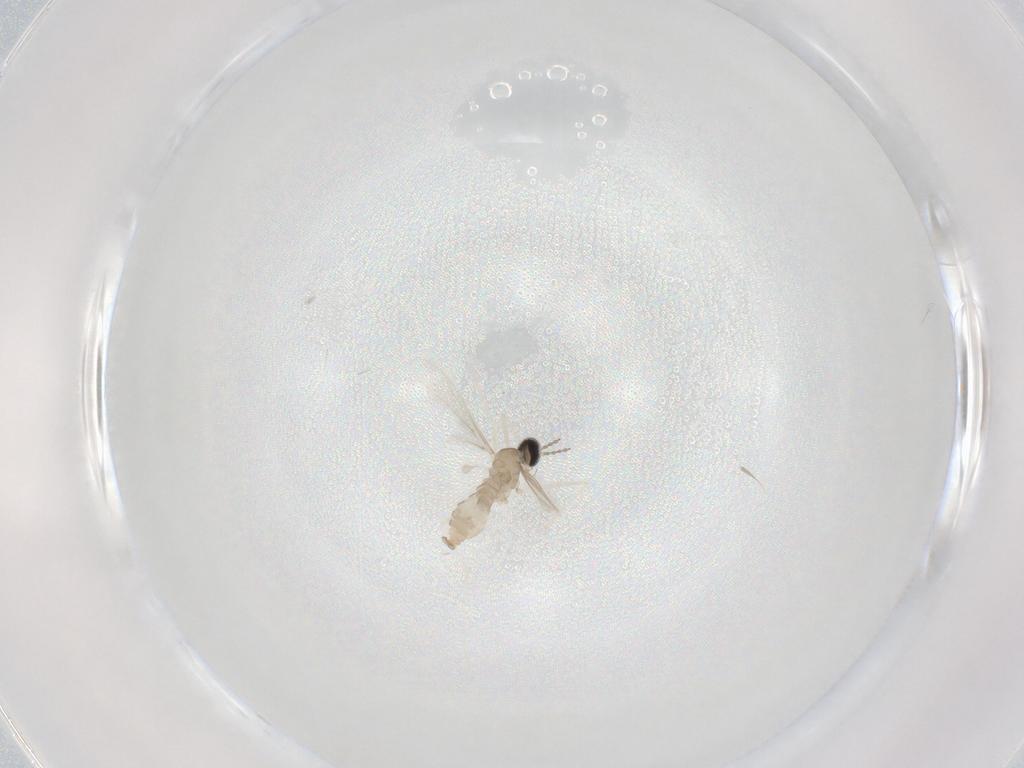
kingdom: Animalia
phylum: Arthropoda
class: Insecta
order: Diptera
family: Cecidomyiidae
